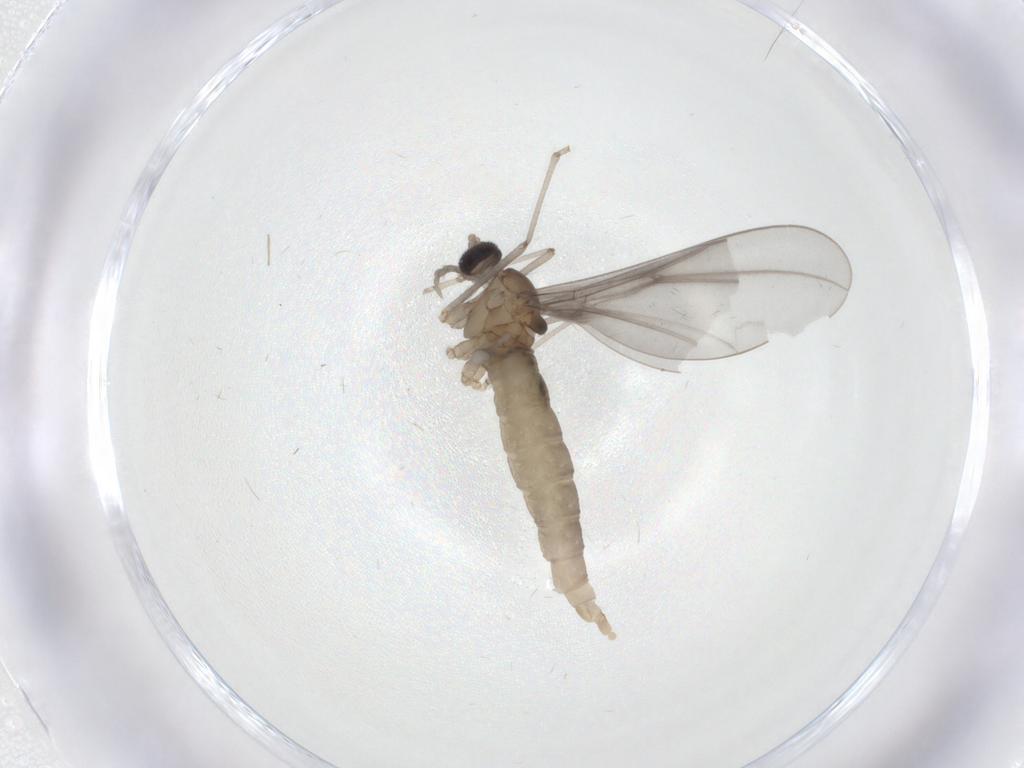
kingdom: Animalia
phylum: Arthropoda
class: Insecta
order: Diptera
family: Cecidomyiidae
